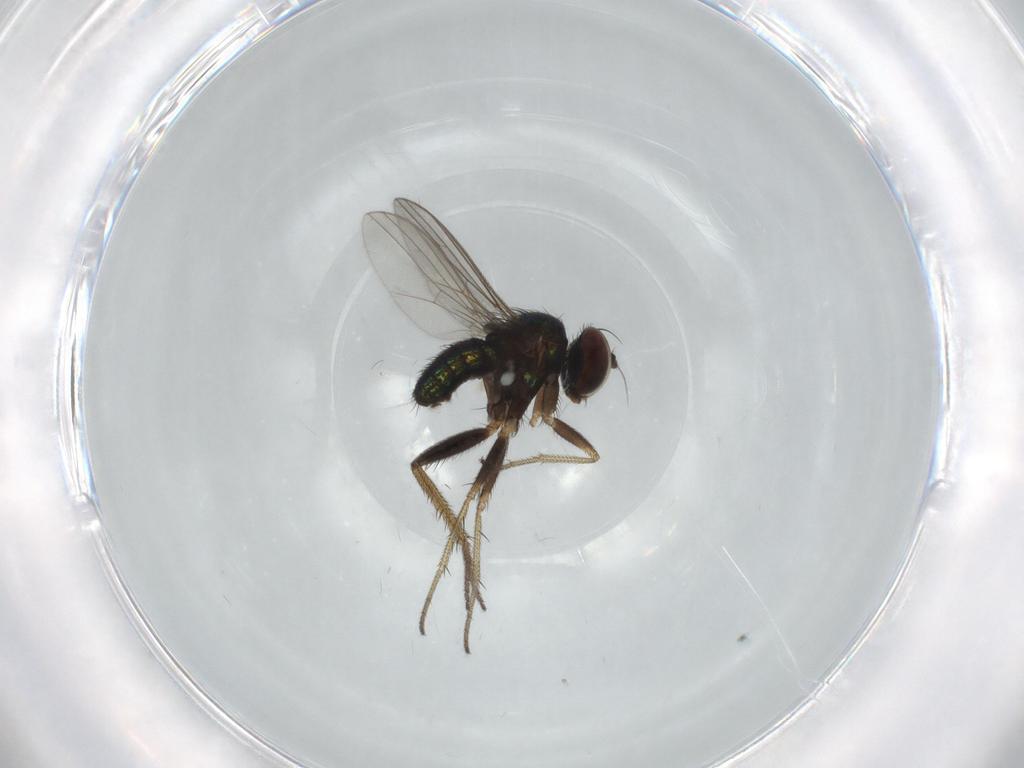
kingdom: Animalia
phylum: Arthropoda
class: Insecta
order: Diptera
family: Dolichopodidae
